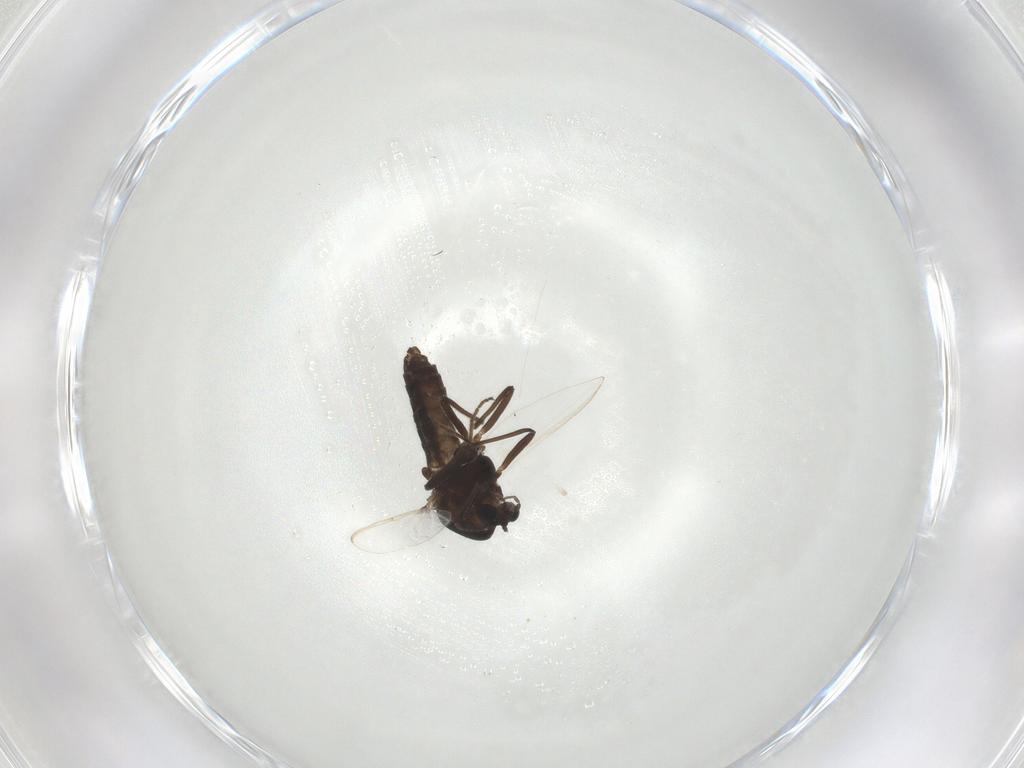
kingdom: Animalia
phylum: Arthropoda
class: Insecta
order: Diptera
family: Chironomidae
